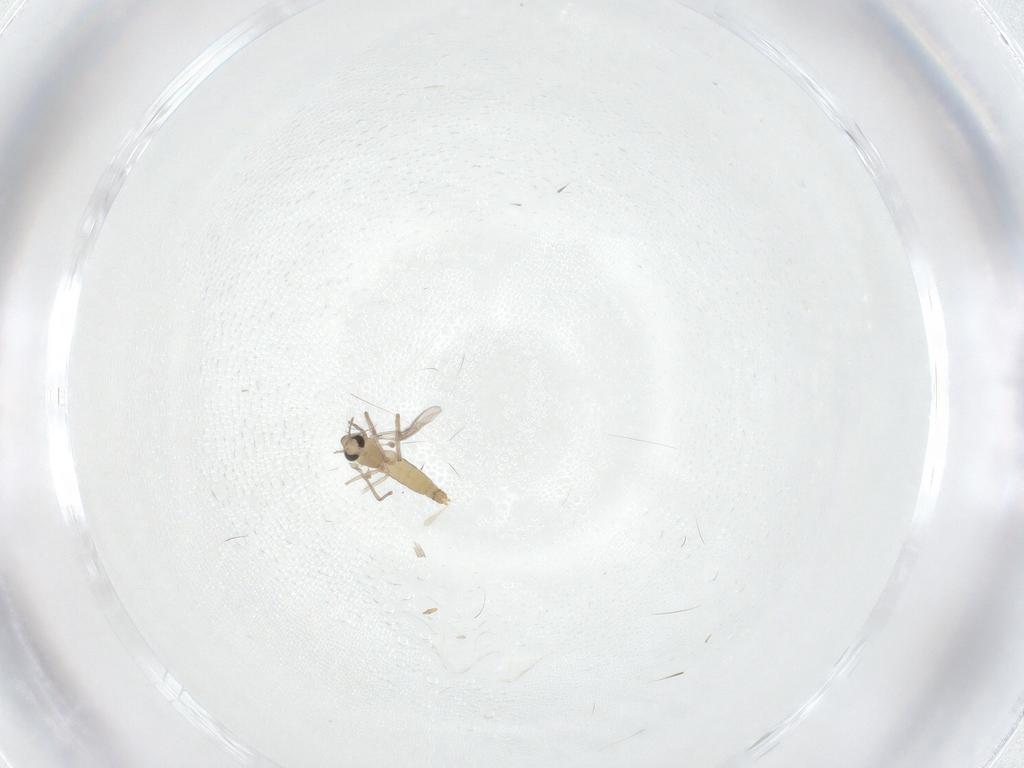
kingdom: Animalia
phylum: Arthropoda
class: Insecta
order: Diptera
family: Chironomidae
